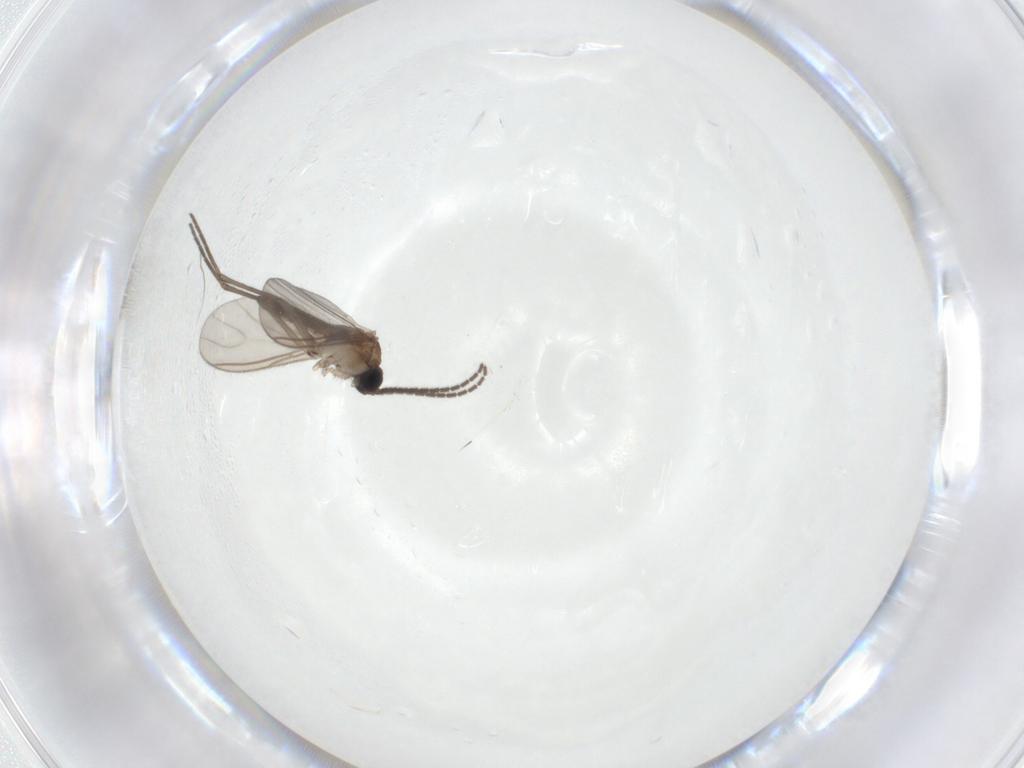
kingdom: Animalia
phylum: Arthropoda
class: Insecta
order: Diptera
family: Sciaridae
